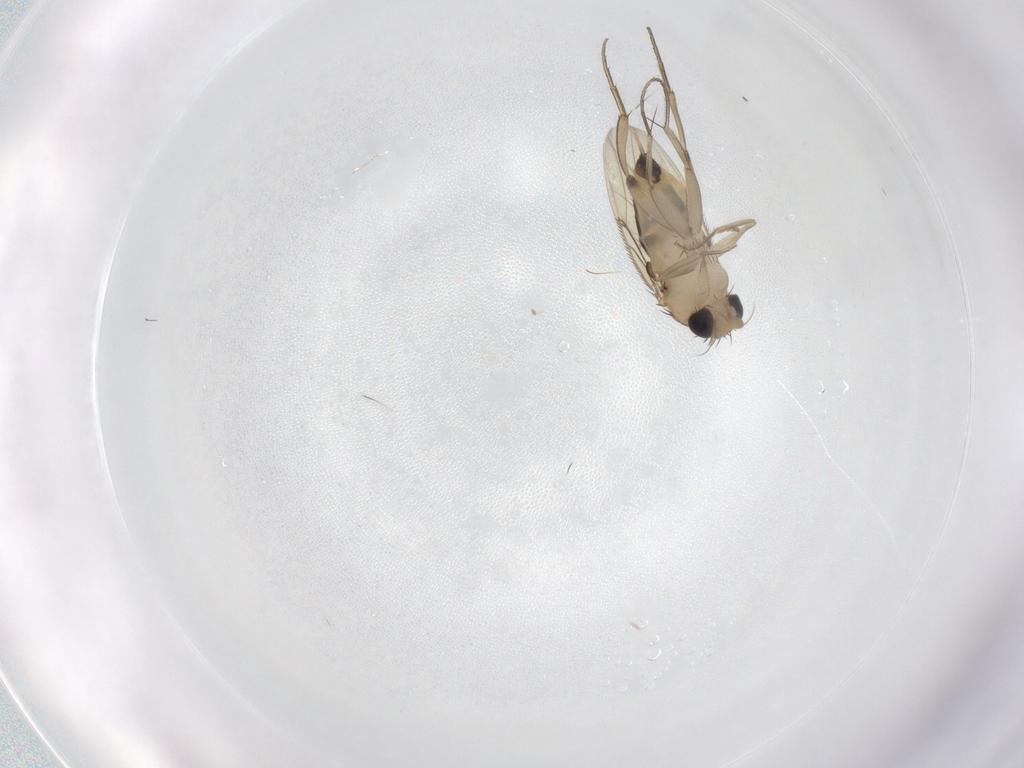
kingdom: Animalia
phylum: Arthropoda
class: Insecta
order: Diptera
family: Phoridae
